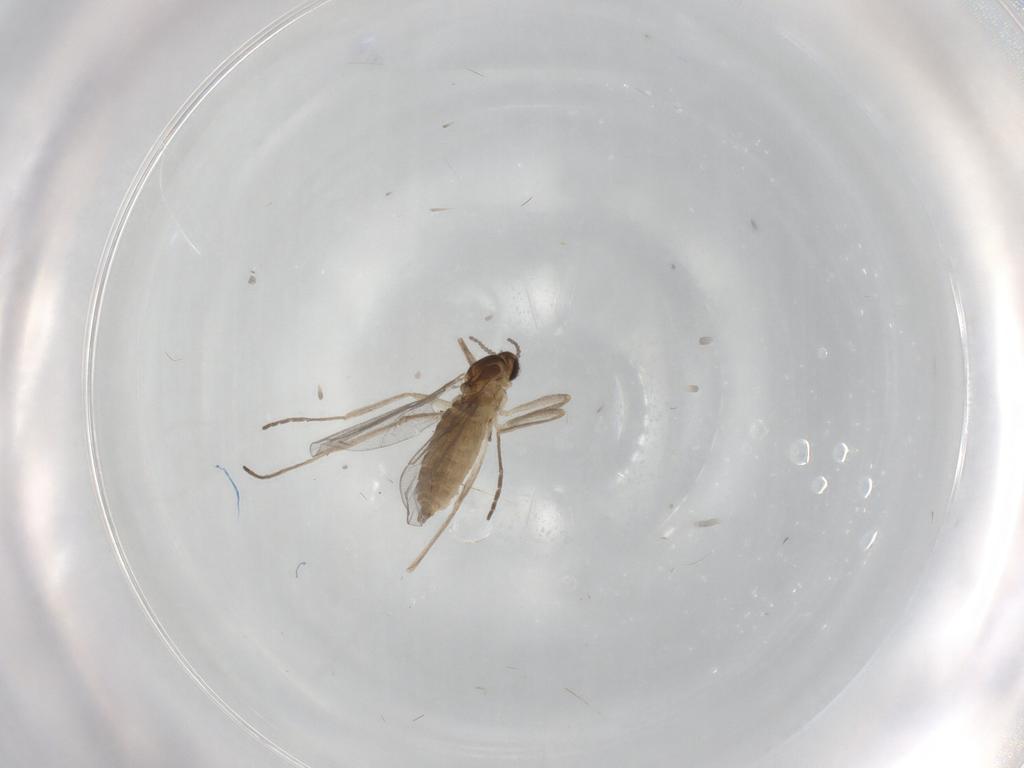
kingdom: Animalia
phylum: Arthropoda
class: Insecta
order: Diptera
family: Cecidomyiidae
